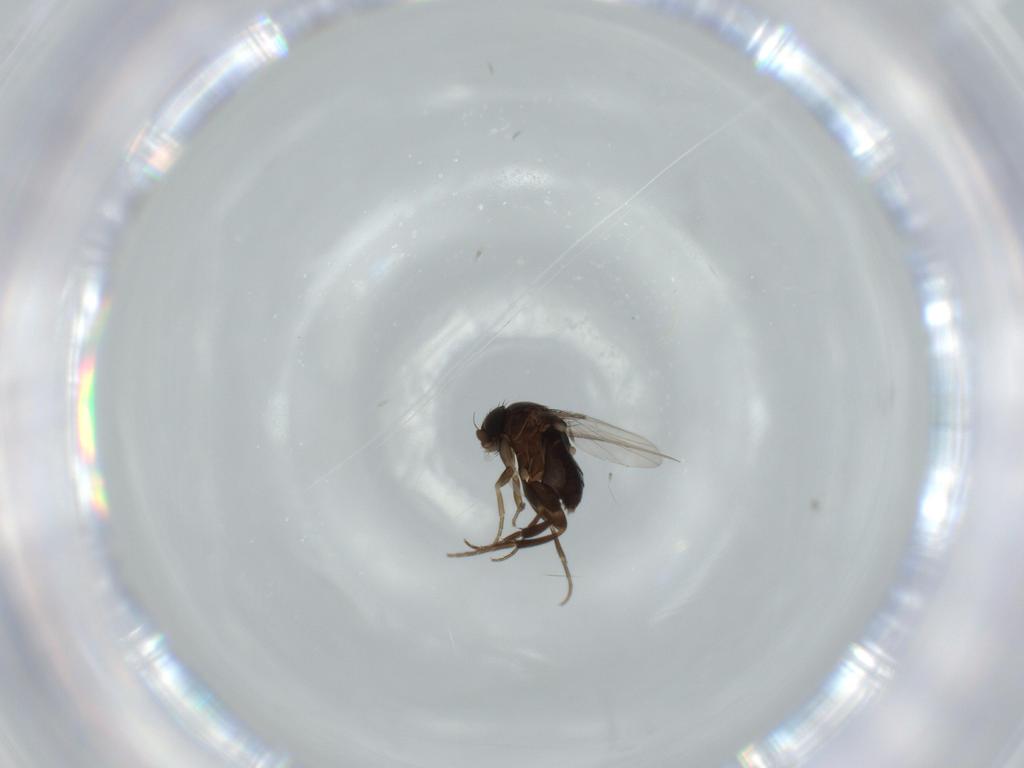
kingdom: Animalia
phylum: Arthropoda
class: Insecta
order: Diptera
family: Phoridae
